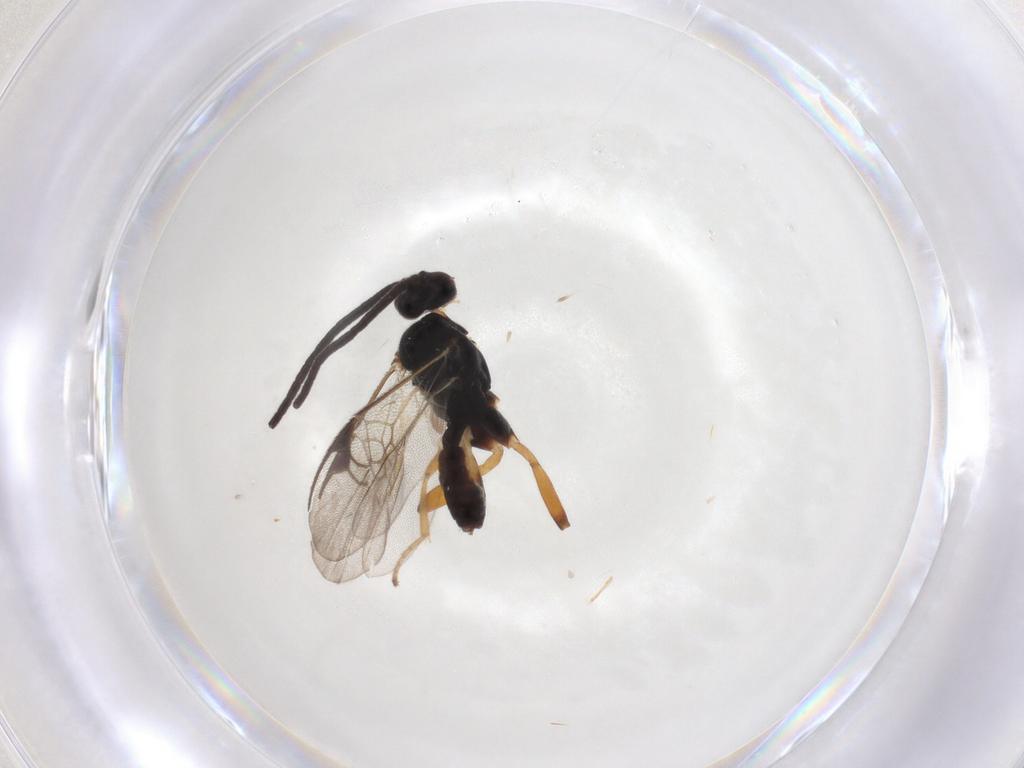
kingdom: Animalia
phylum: Arthropoda
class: Insecta
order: Hymenoptera
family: Braconidae
